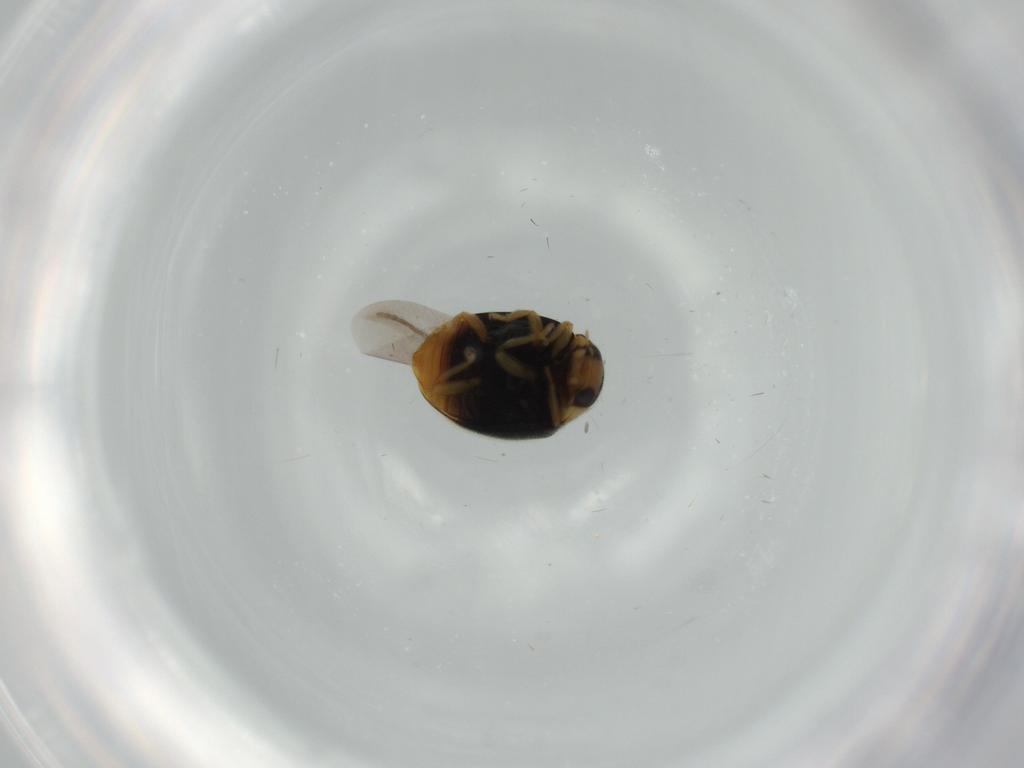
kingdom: Animalia
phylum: Arthropoda
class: Insecta
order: Coleoptera
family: Coccinellidae
